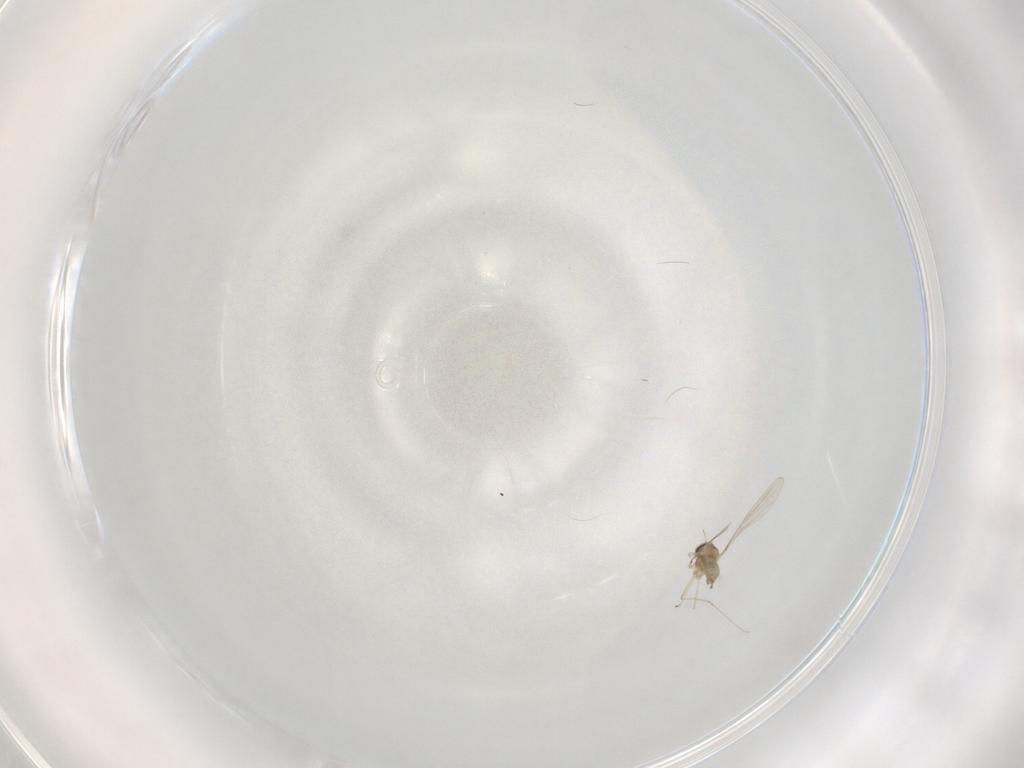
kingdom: Animalia
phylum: Arthropoda
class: Insecta
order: Diptera
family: Cecidomyiidae
